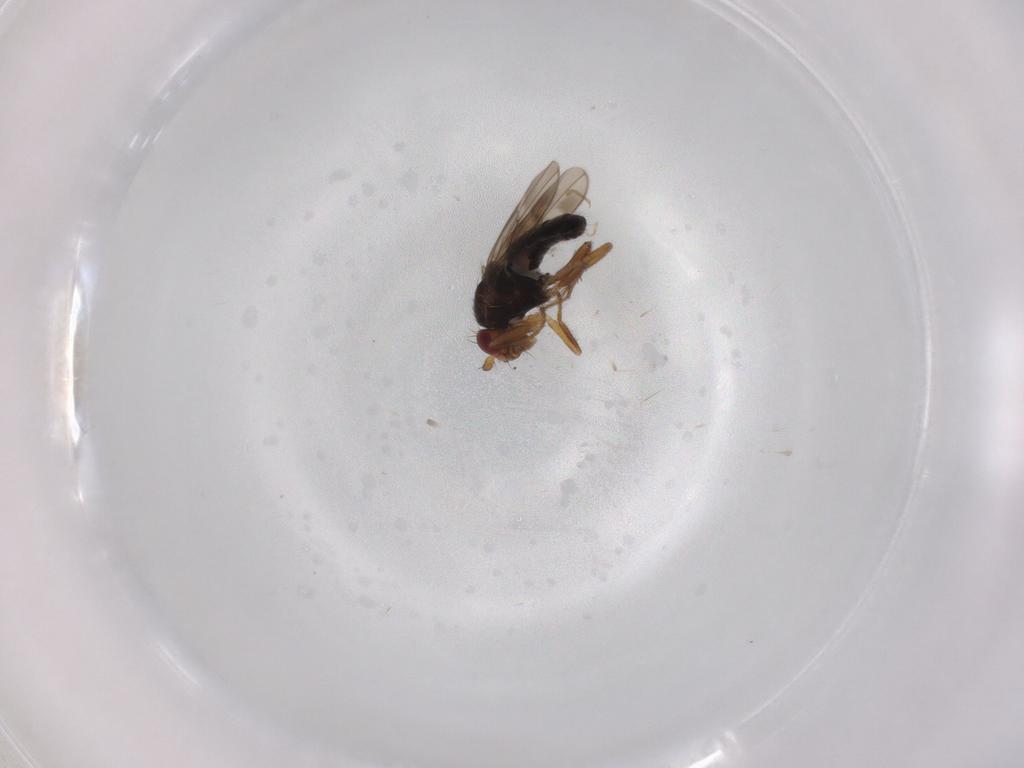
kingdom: Animalia
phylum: Arthropoda
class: Insecta
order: Diptera
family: Sphaeroceridae
